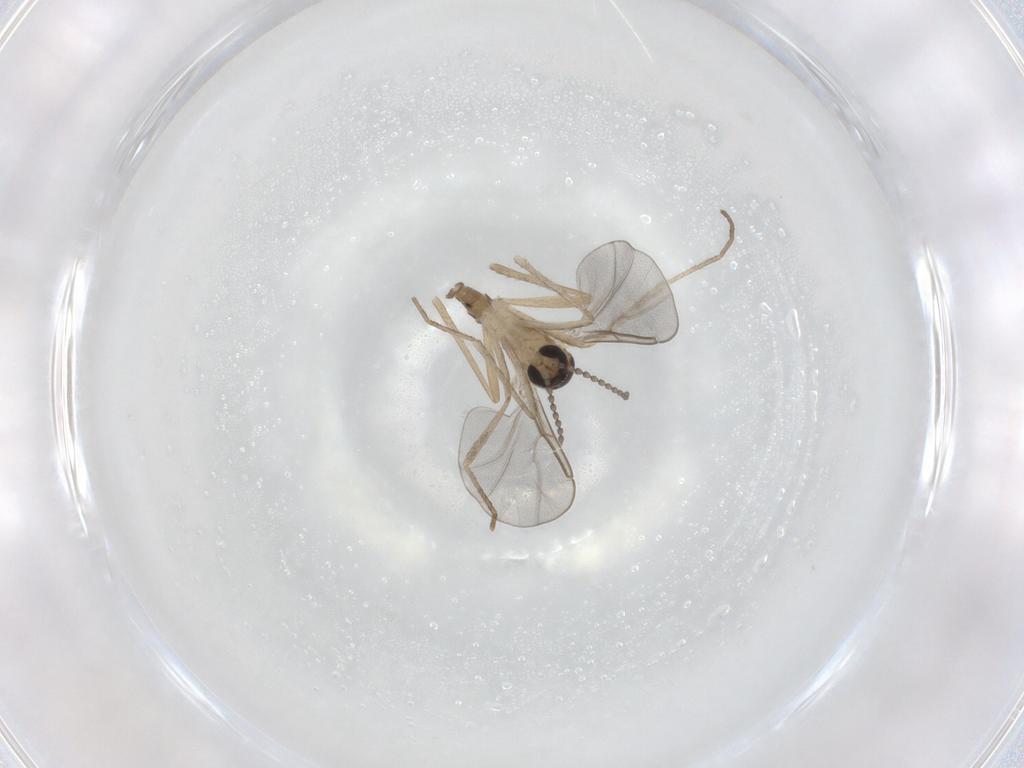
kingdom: Animalia
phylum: Arthropoda
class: Insecta
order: Diptera
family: Cecidomyiidae
